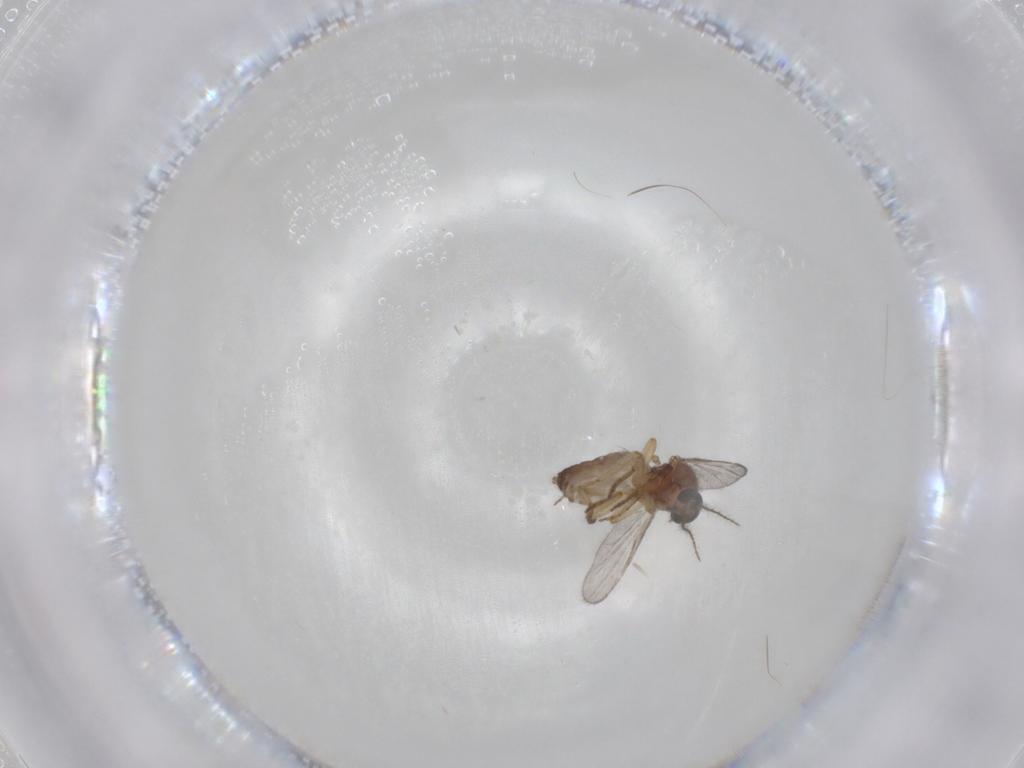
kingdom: Animalia
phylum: Arthropoda
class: Insecta
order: Diptera
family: Ceratopogonidae
